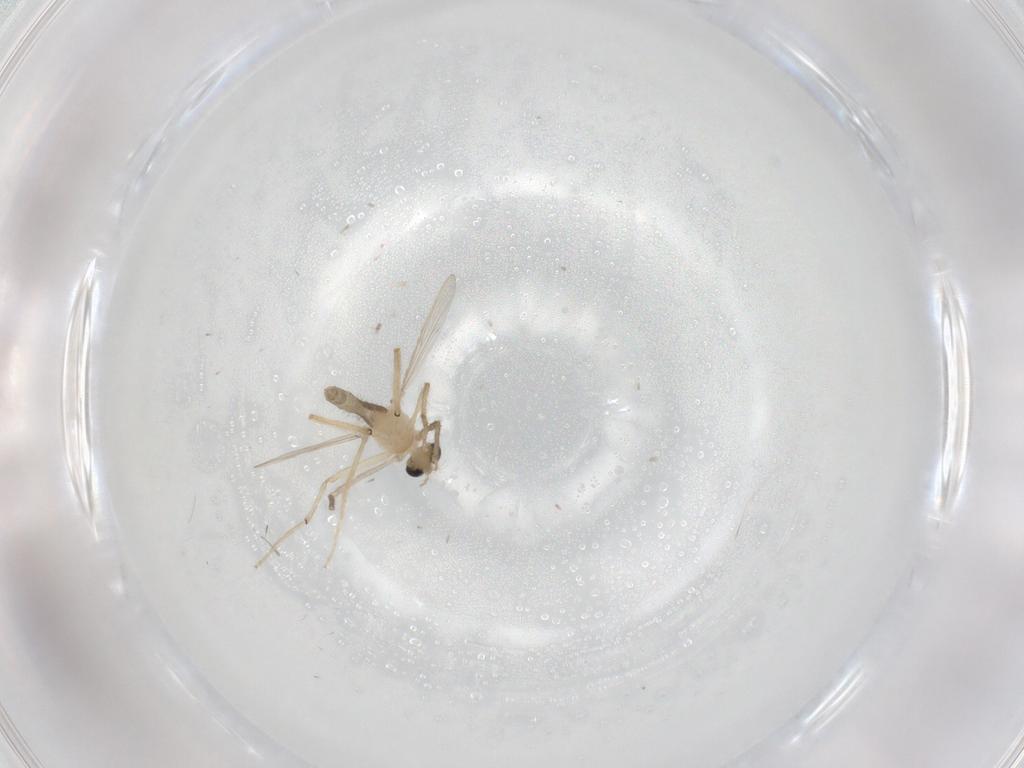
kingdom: Animalia
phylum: Arthropoda
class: Insecta
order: Diptera
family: Chironomidae
